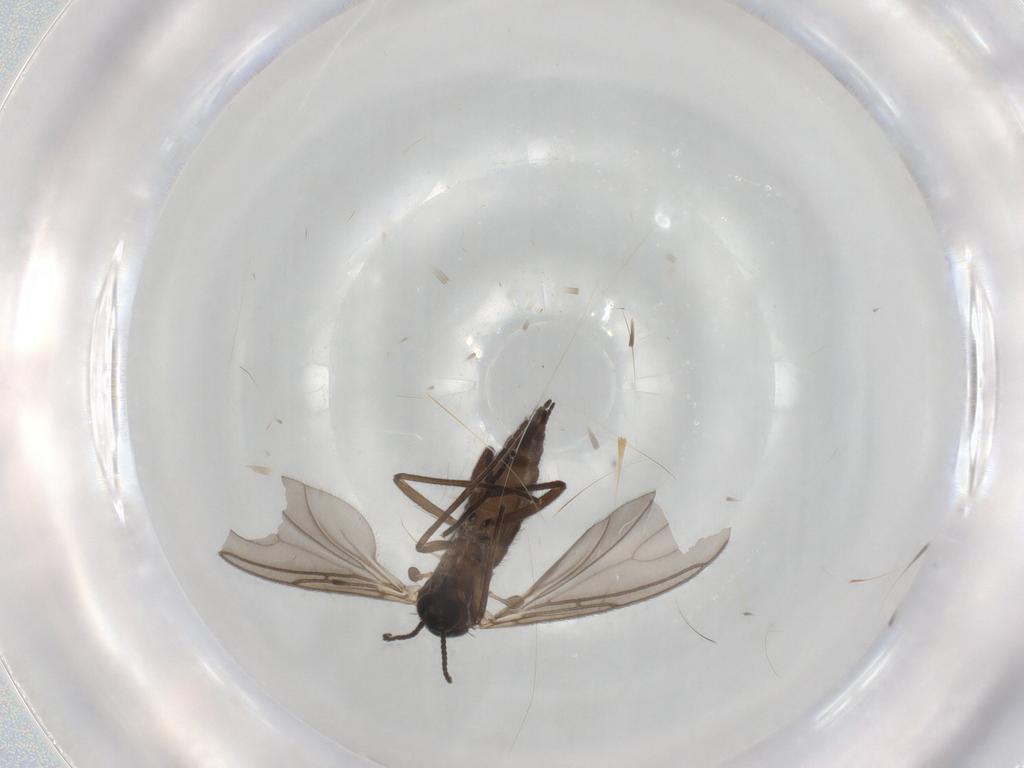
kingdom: Animalia
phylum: Arthropoda
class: Insecta
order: Diptera
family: Sciaridae
